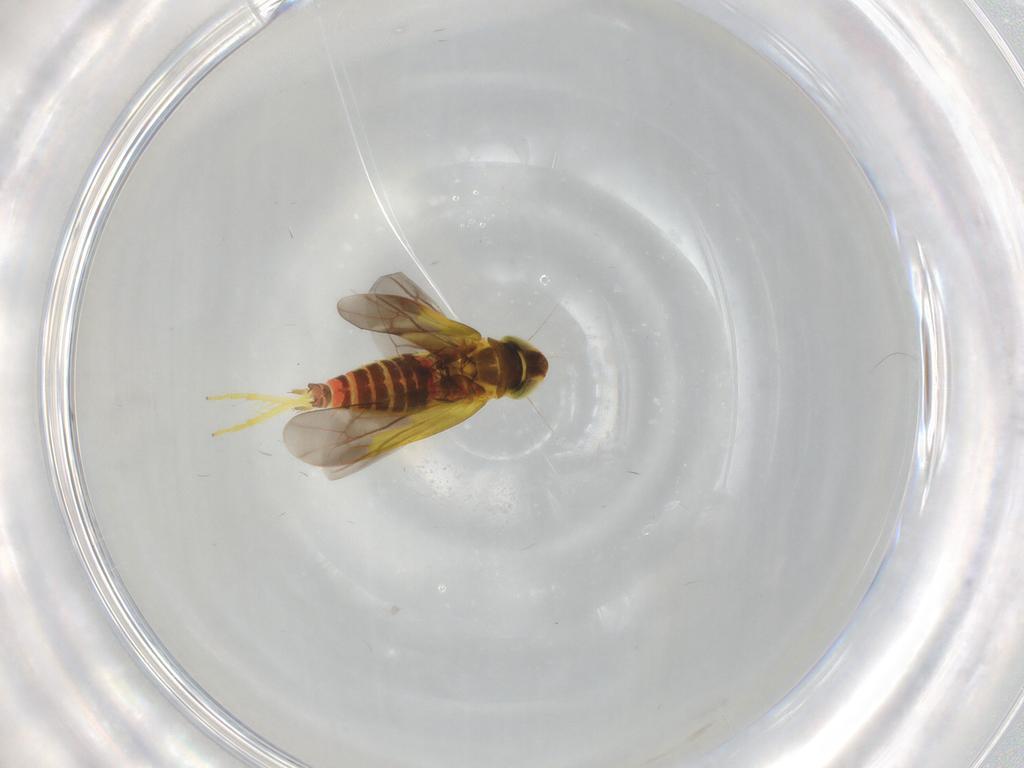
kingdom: Animalia
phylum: Arthropoda
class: Insecta
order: Hemiptera
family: Cicadellidae
